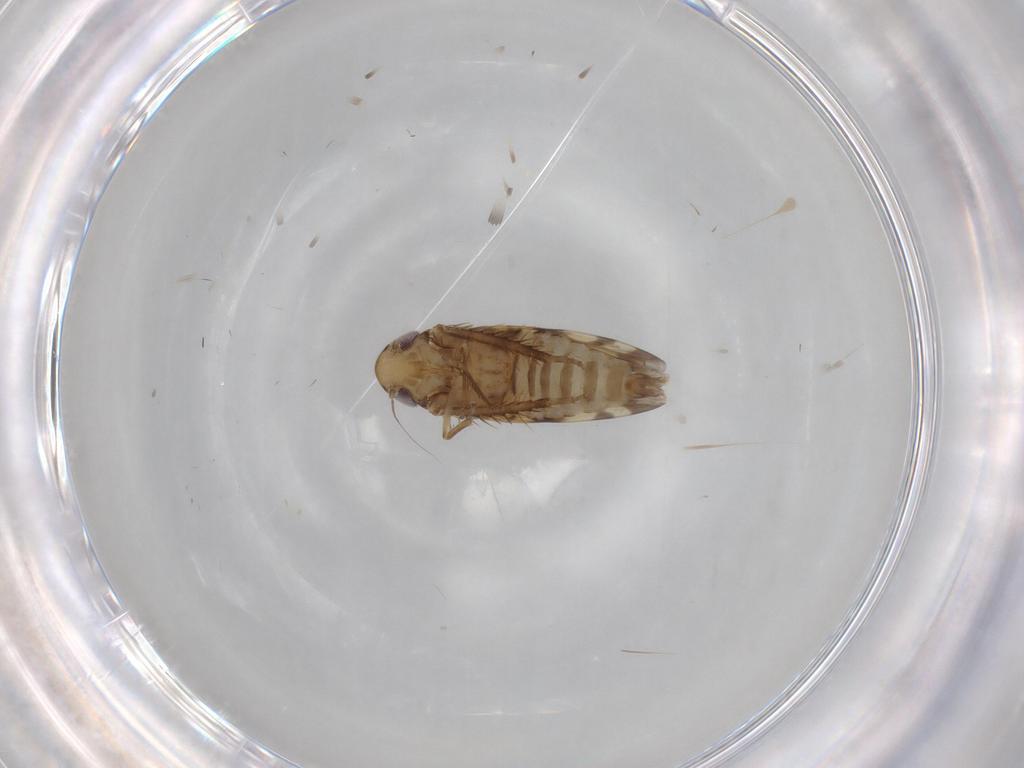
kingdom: Animalia
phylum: Arthropoda
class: Insecta
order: Hemiptera
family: Cicadellidae
